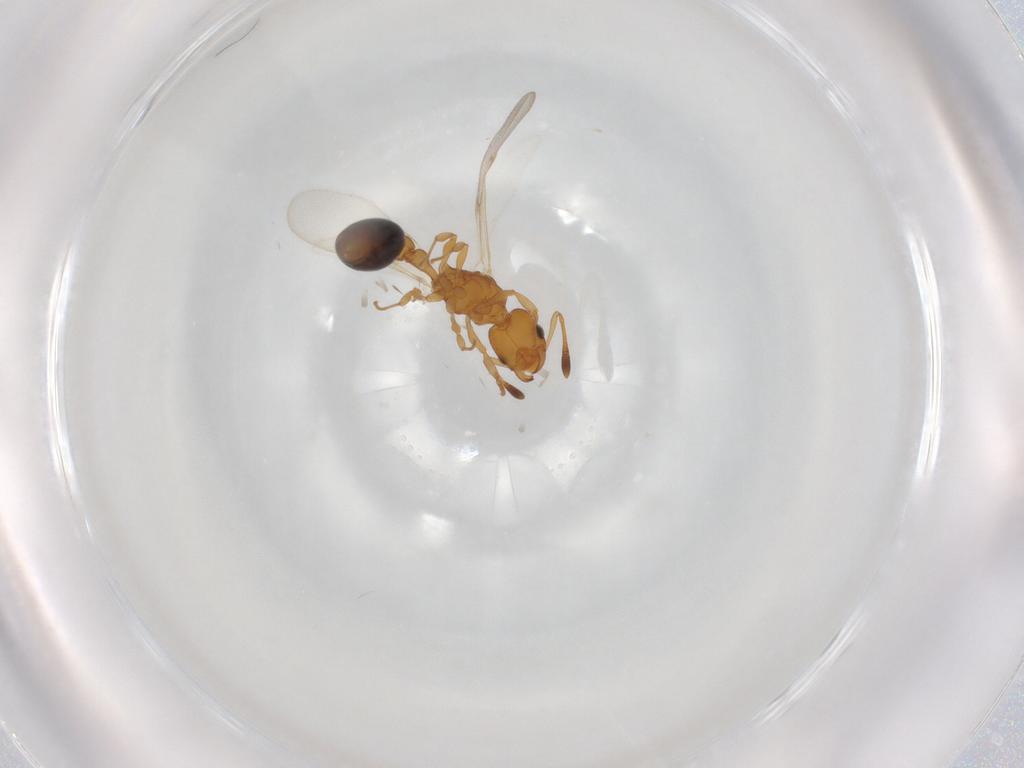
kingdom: Animalia
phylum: Arthropoda
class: Insecta
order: Hymenoptera
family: Formicidae
